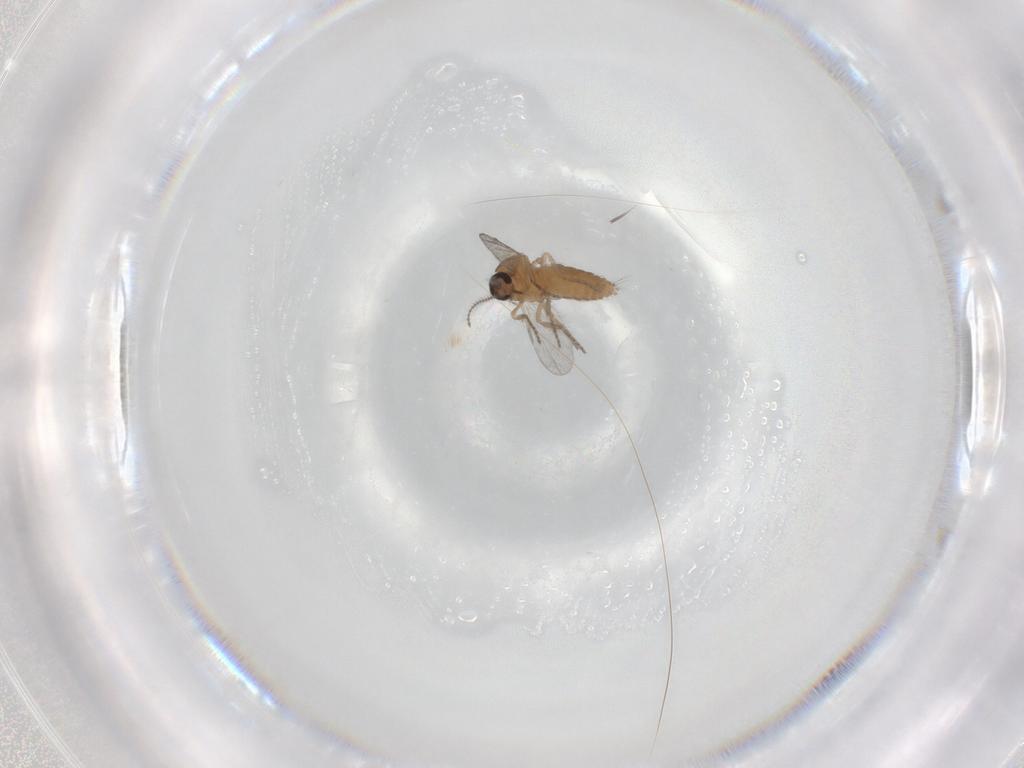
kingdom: Animalia
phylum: Arthropoda
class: Insecta
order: Diptera
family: Ceratopogonidae
